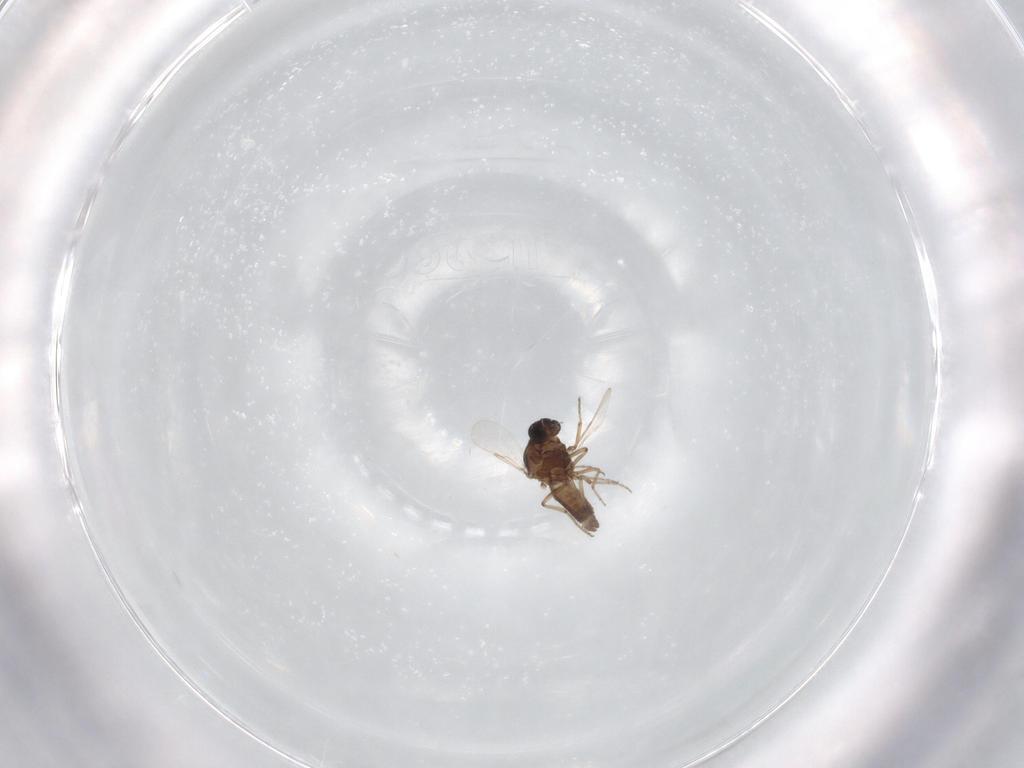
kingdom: Animalia
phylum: Arthropoda
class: Insecta
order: Diptera
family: Ceratopogonidae
